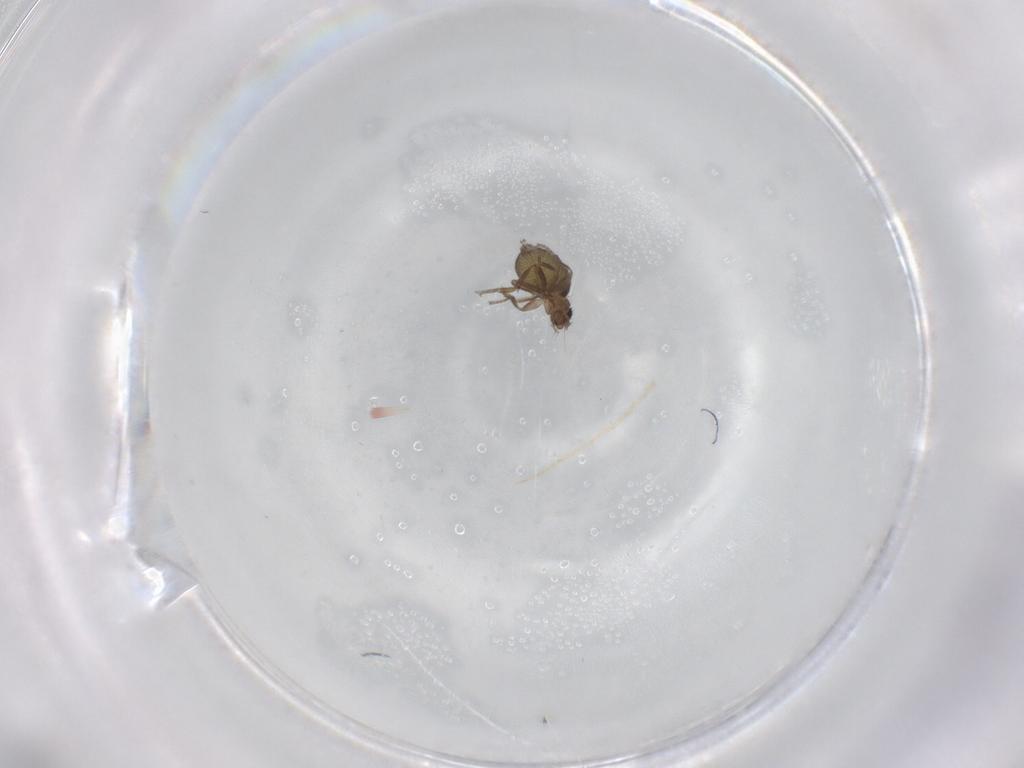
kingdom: Animalia
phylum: Arthropoda
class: Insecta
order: Diptera
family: Phoridae
